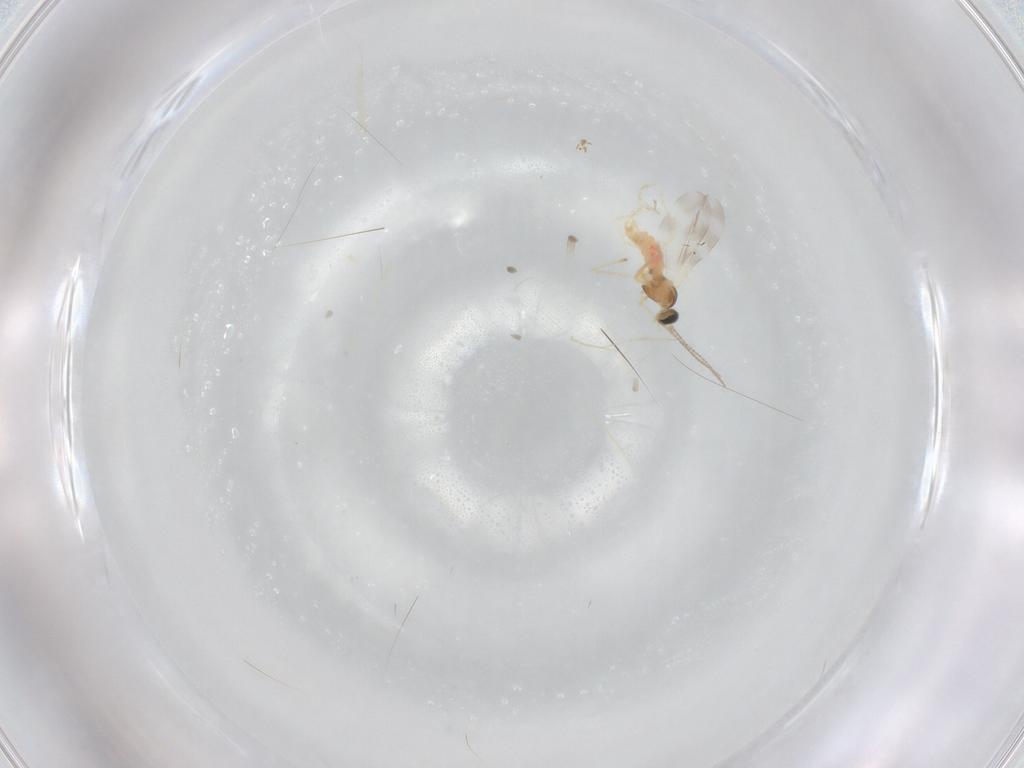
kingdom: Animalia
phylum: Arthropoda
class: Insecta
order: Diptera
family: Cecidomyiidae
